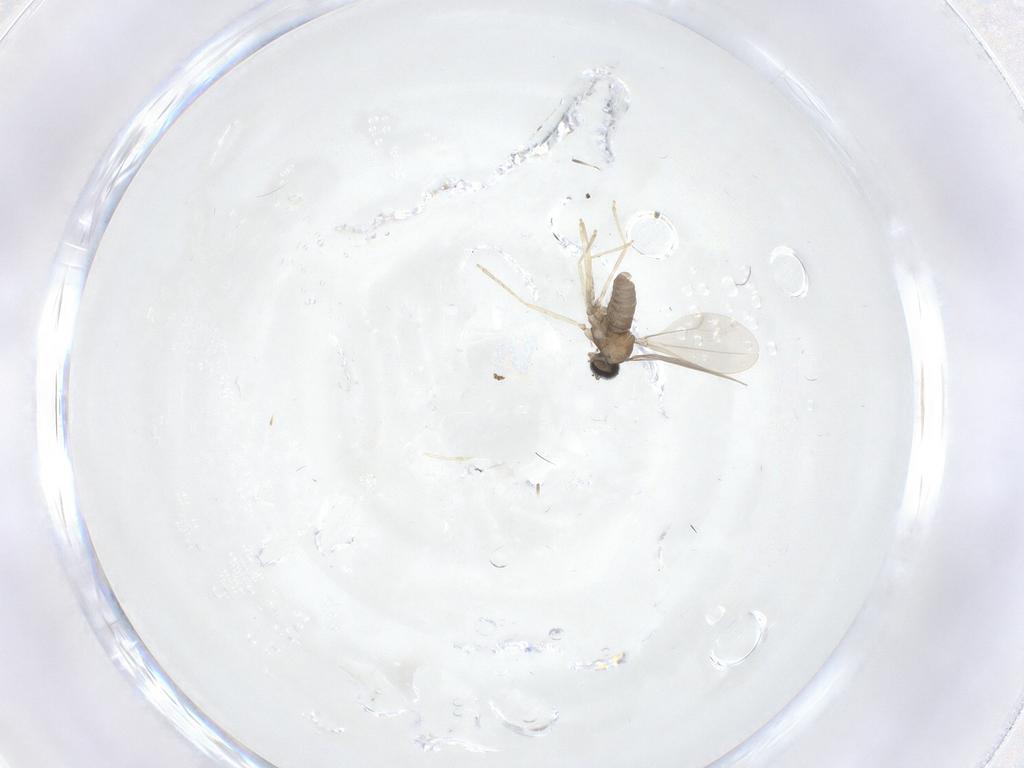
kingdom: Animalia
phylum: Arthropoda
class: Insecta
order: Diptera
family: Cecidomyiidae
